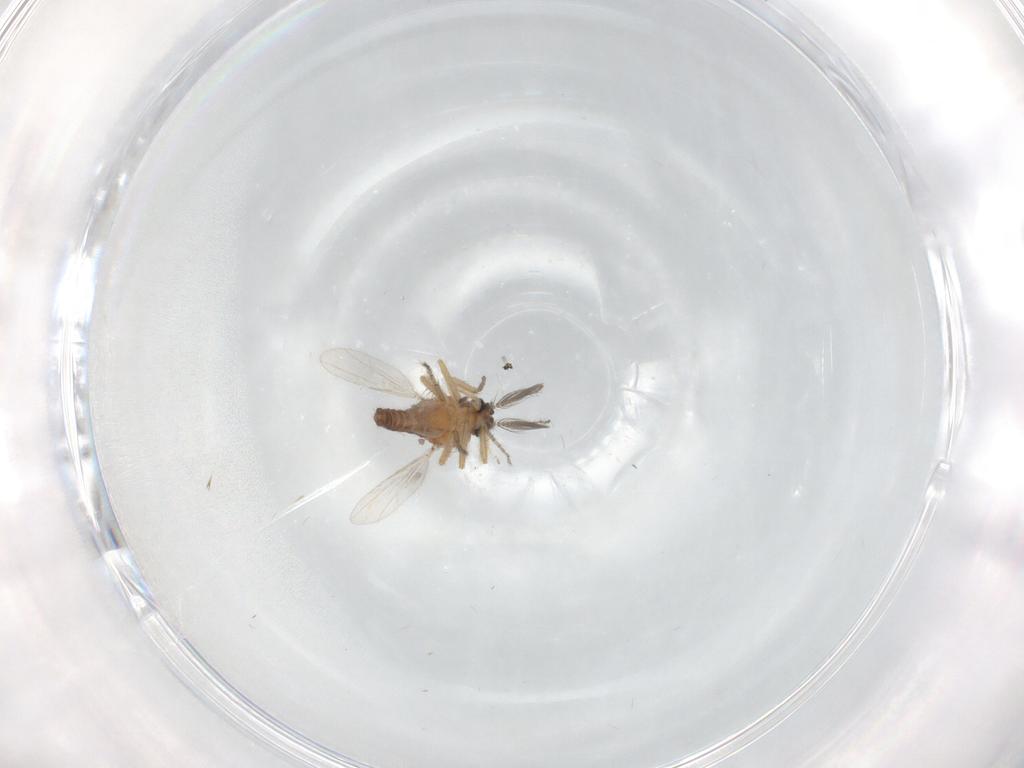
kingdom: Animalia
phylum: Arthropoda
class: Insecta
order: Diptera
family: Ceratopogonidae
